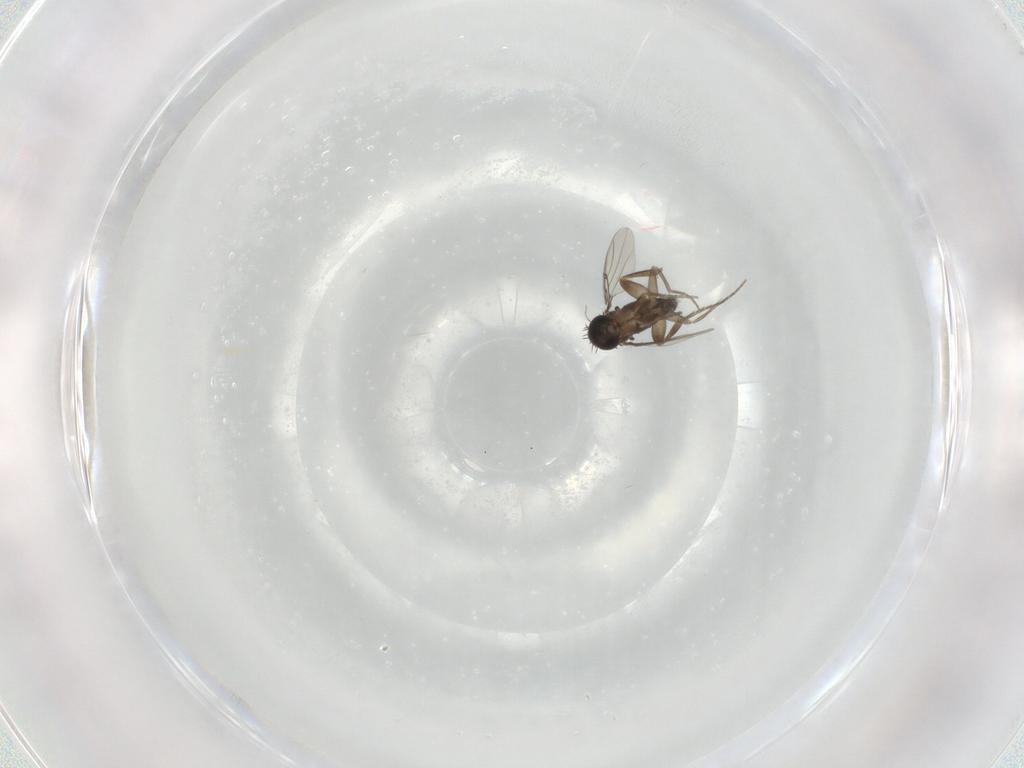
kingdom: Animalia
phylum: Arthropoda
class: Insecta
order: Diptera
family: Phoridae
